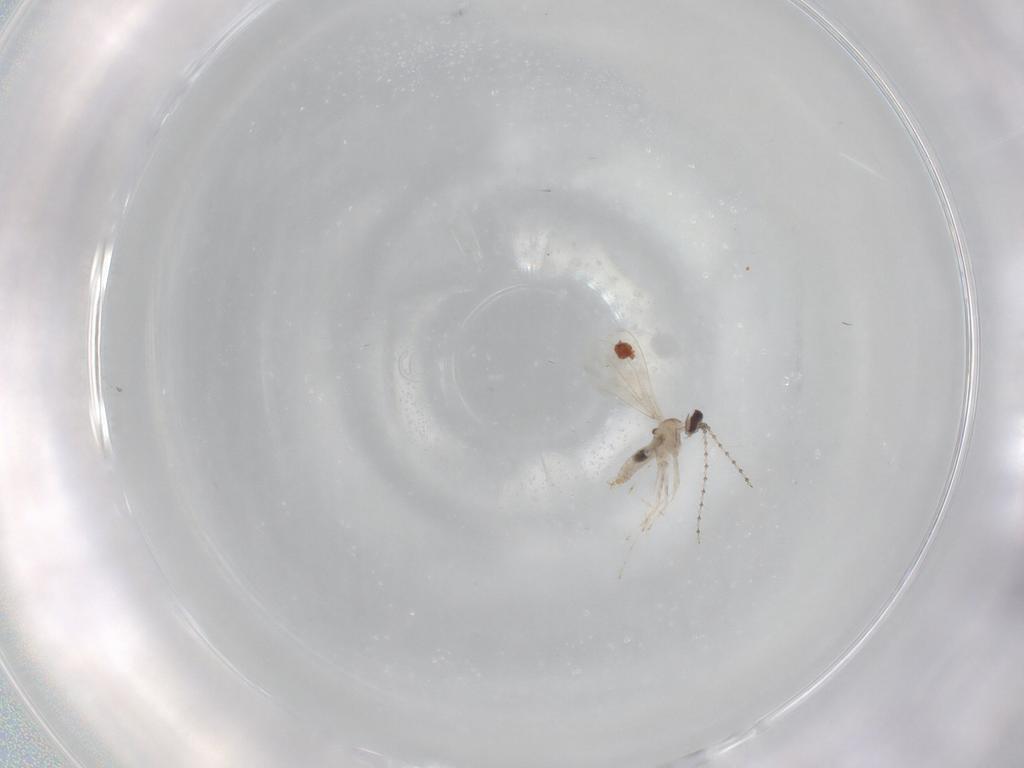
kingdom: Animalia
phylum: Arthropoda
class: Insecta
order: Diptera
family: Cecidomyiidae
